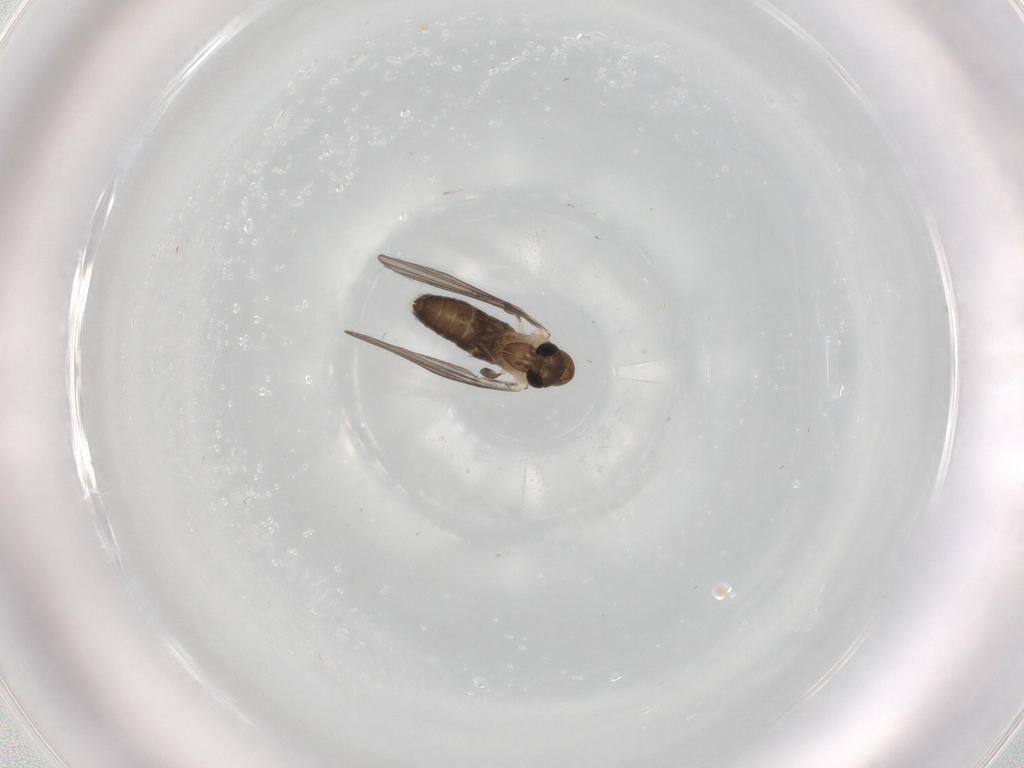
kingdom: Animalia
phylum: Arthropoda
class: Insecta
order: Diptera
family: Psychodidae
